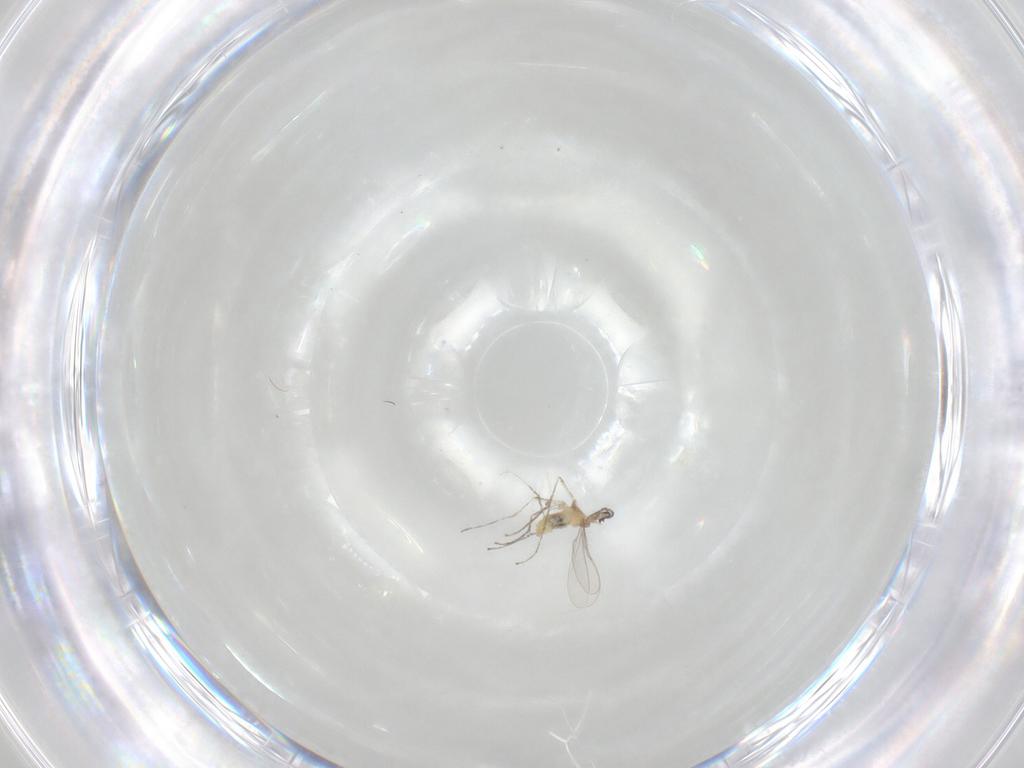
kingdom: Animalia
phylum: Arthropoda
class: Insecta
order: Diptera
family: Cecidomyiidae
